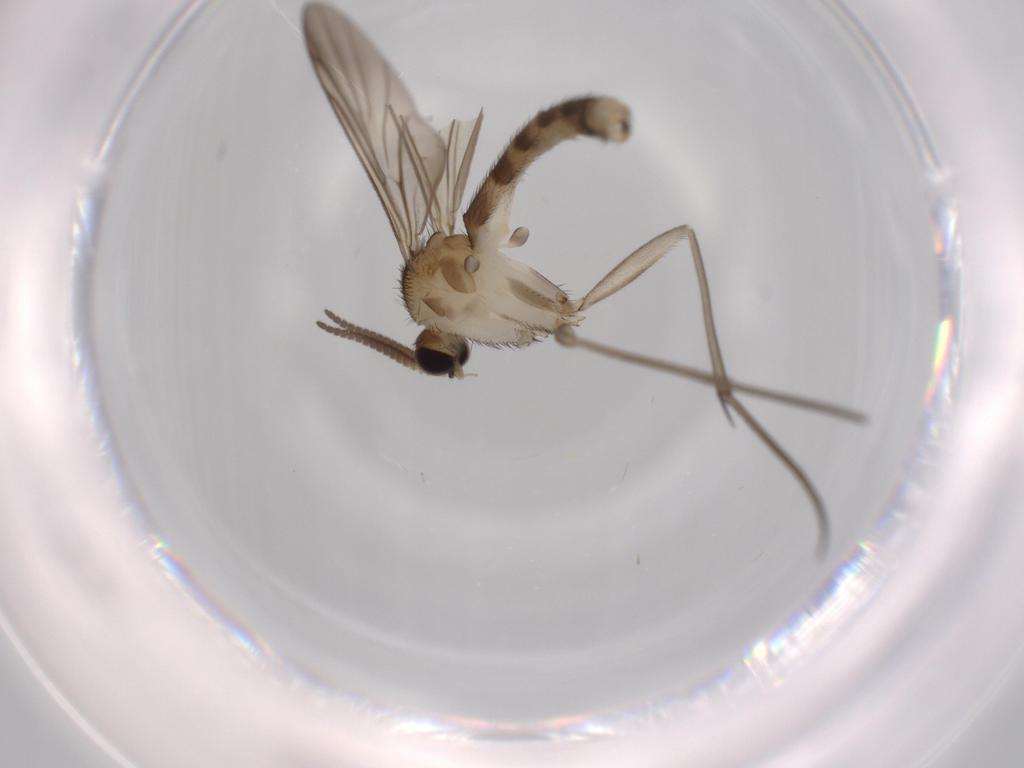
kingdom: Animalia
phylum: Arthropoda
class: Insecta
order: Diptera
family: Mycetophilidae
